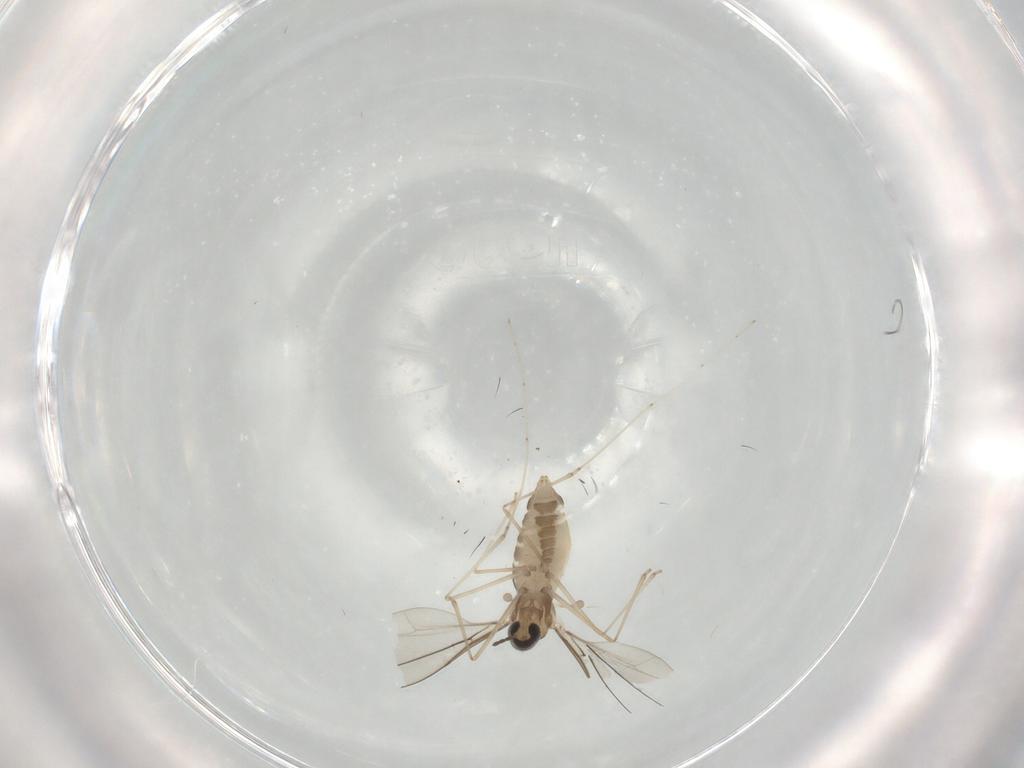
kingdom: Animalia
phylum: Arthropoda
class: Insecta
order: Diptera
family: Cecidomyiidae
